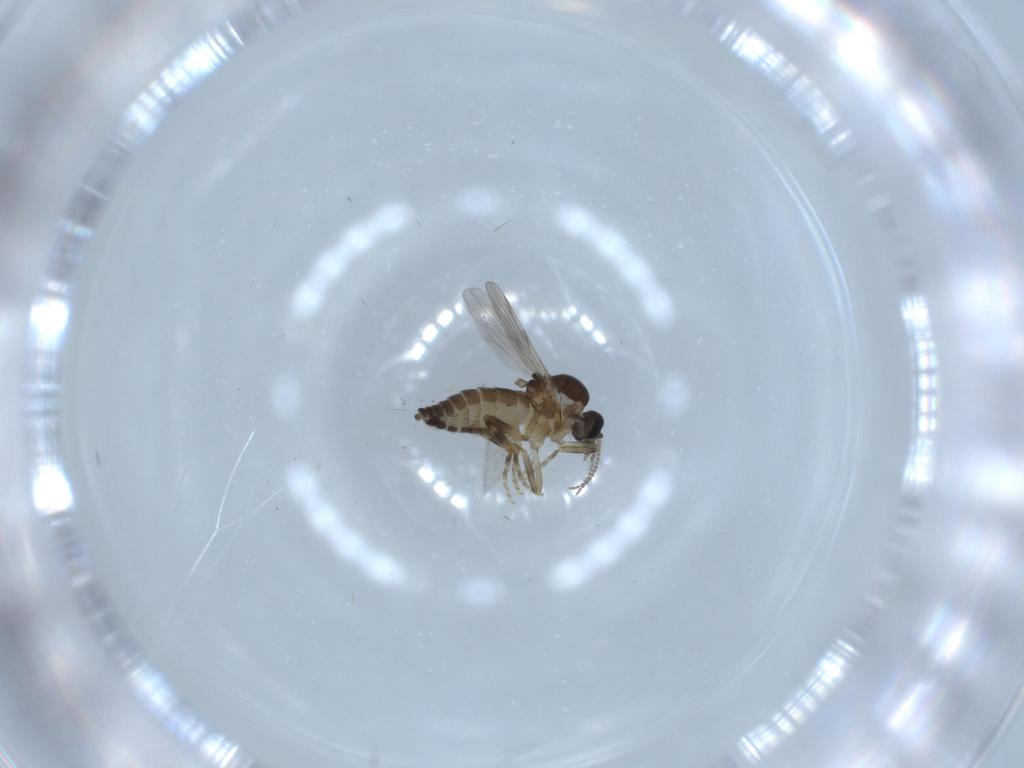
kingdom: Animalia
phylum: Arthropoda
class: Insecta
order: Diptera
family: Ceratopogonidae
